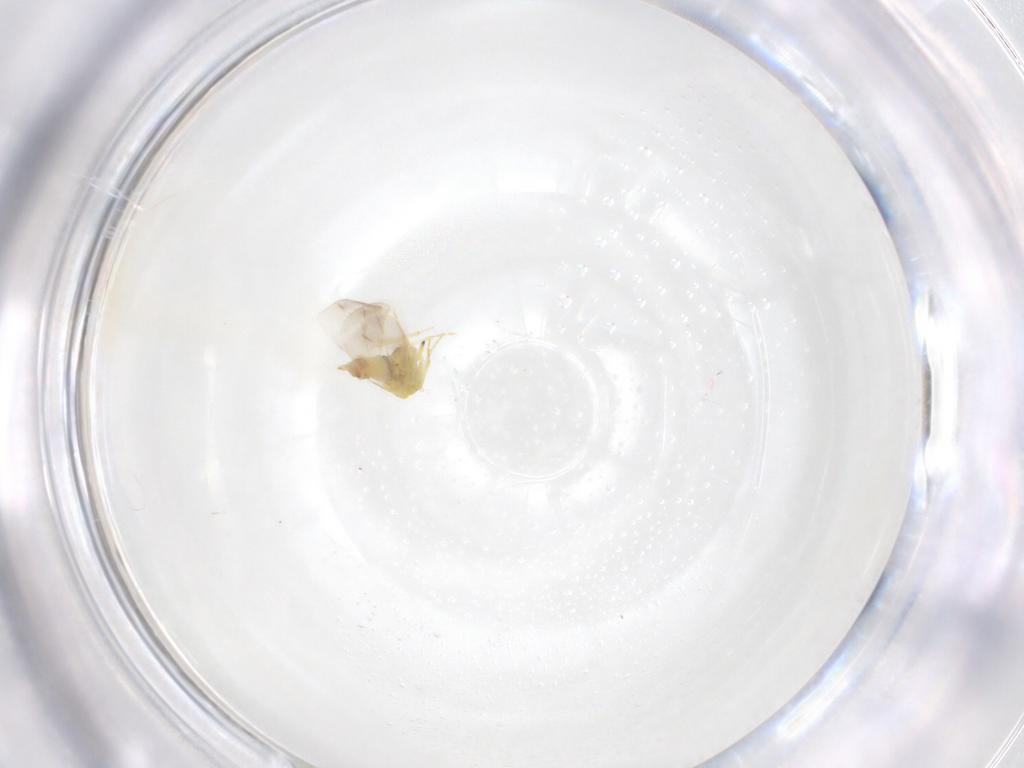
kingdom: Animalia
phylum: Arthropoda
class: Insecta
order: Hemiptera
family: Aleyrodidae
